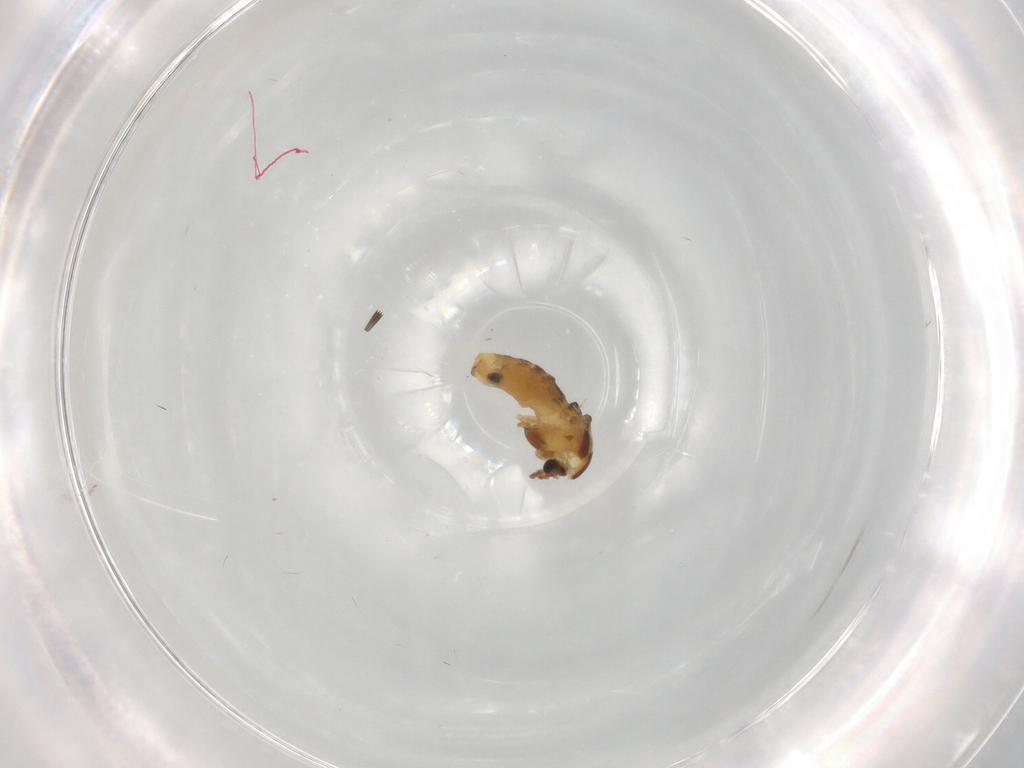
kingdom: Animalia
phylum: Arthropoda
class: Insecta
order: Diptera
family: Chironomidae
